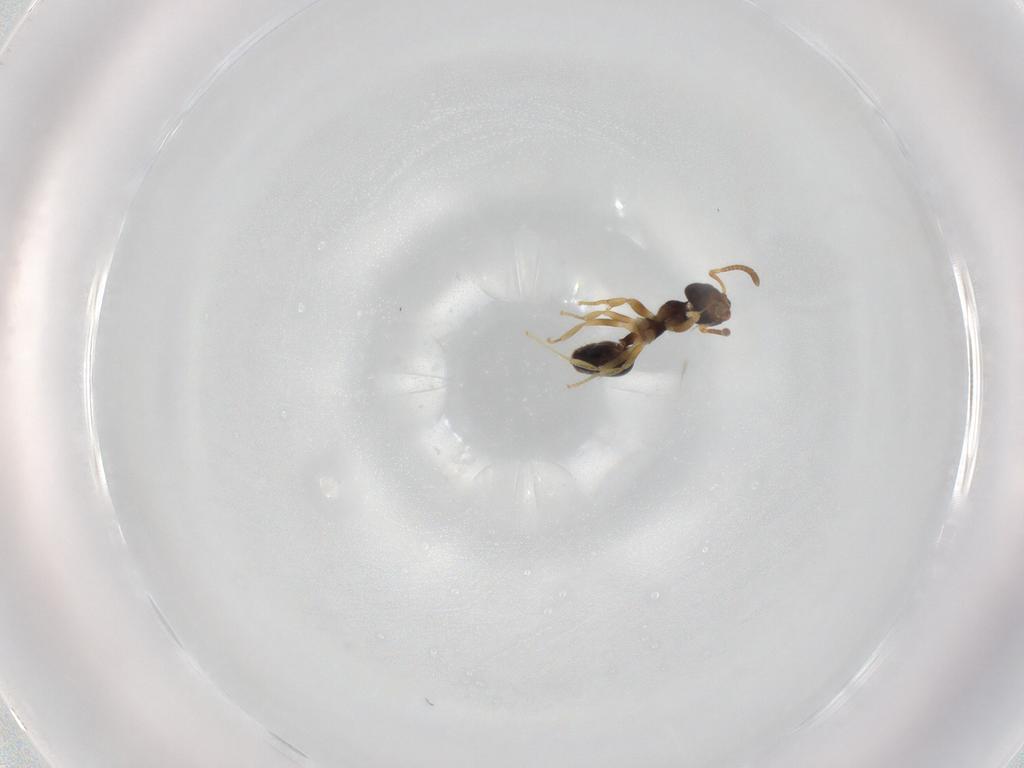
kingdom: Animalia
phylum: Arthropoda
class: Insecta
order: Hymenoptera
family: Formicidae
